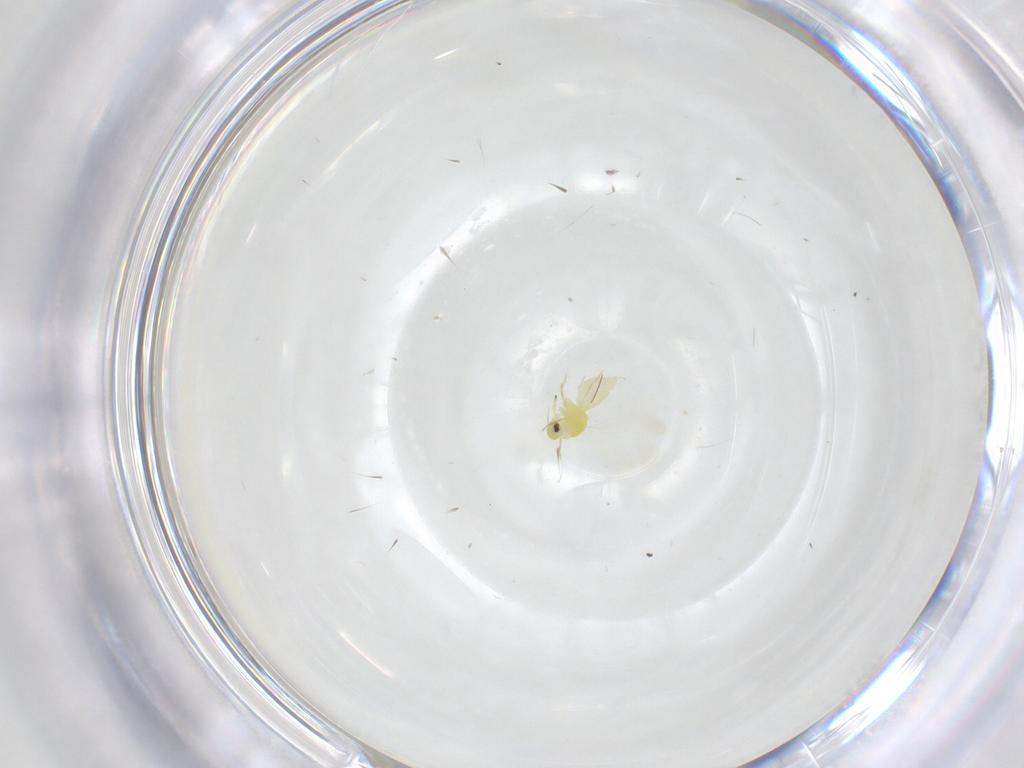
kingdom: Animalia
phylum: Arthropoda
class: Insecta
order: Hemiptera
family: Aleyrodidae
